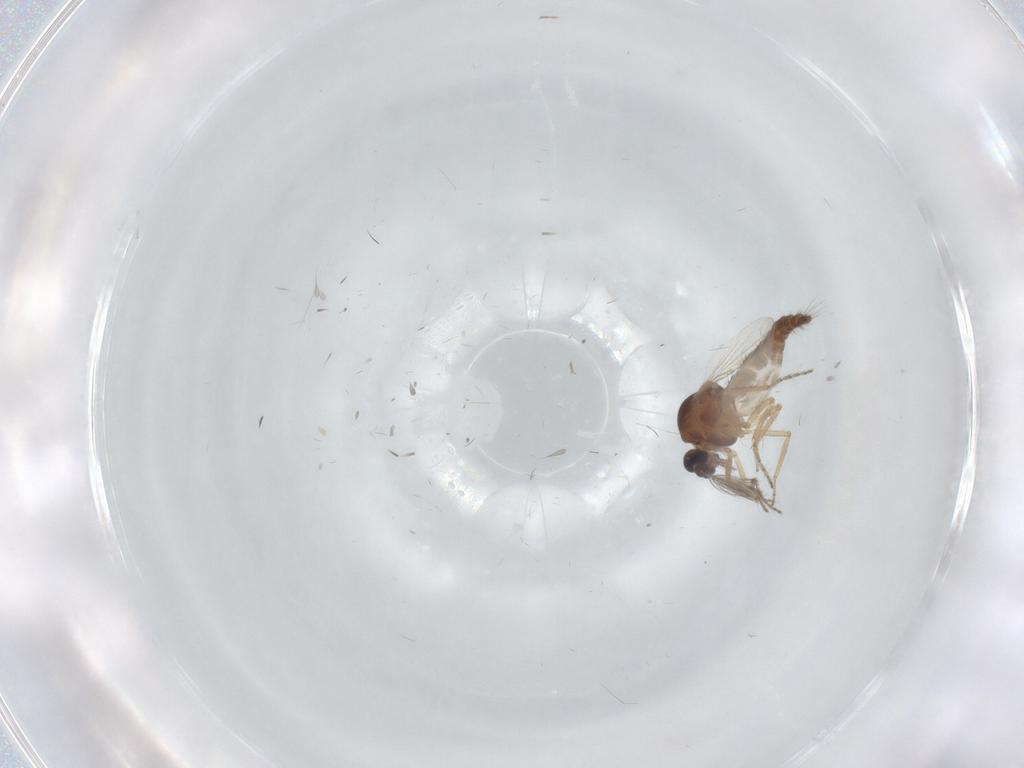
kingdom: Animalia
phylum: Arthropoda
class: Insecta
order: Diptera
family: Ceratopogonidae
